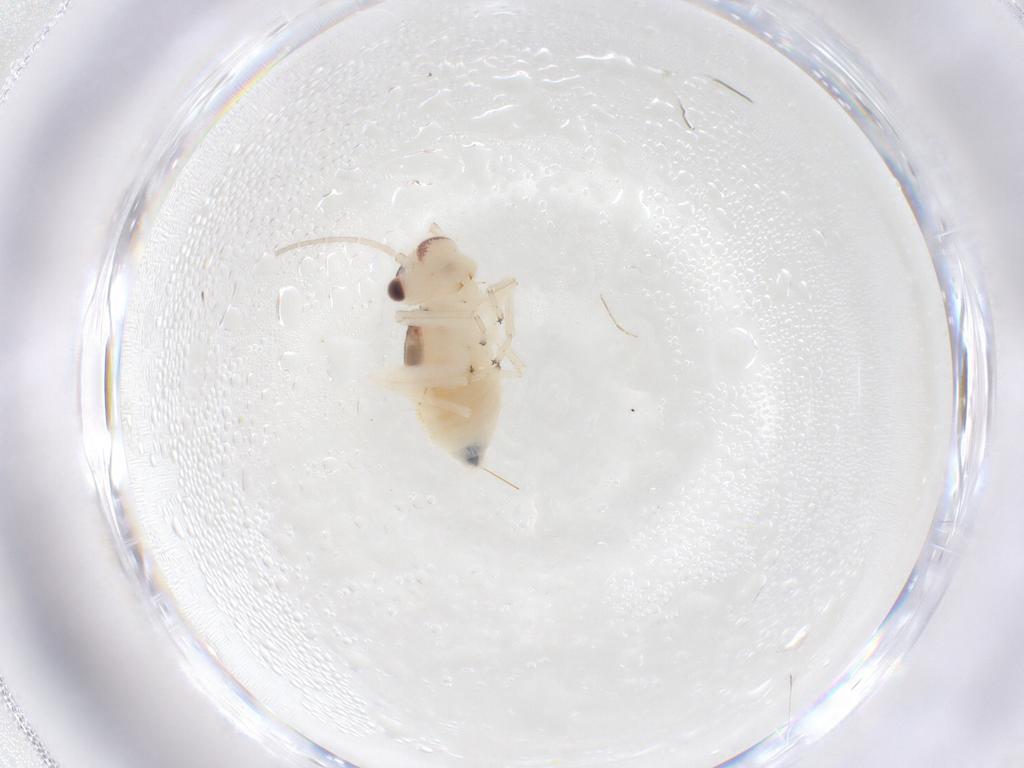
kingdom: Animalia
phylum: Arthropoda
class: Insecta
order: Psocodea
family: Amphipsocidae
